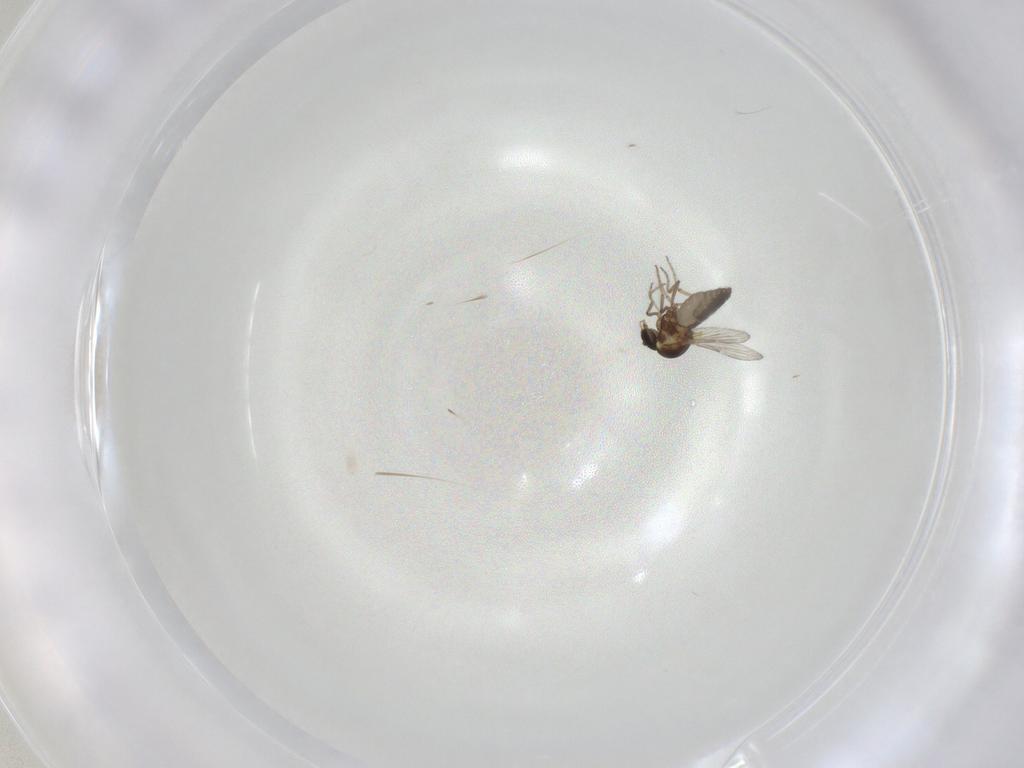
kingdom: Animalia
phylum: Arthropoda
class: Insecta
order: Diptera
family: Ceratopogonidae
